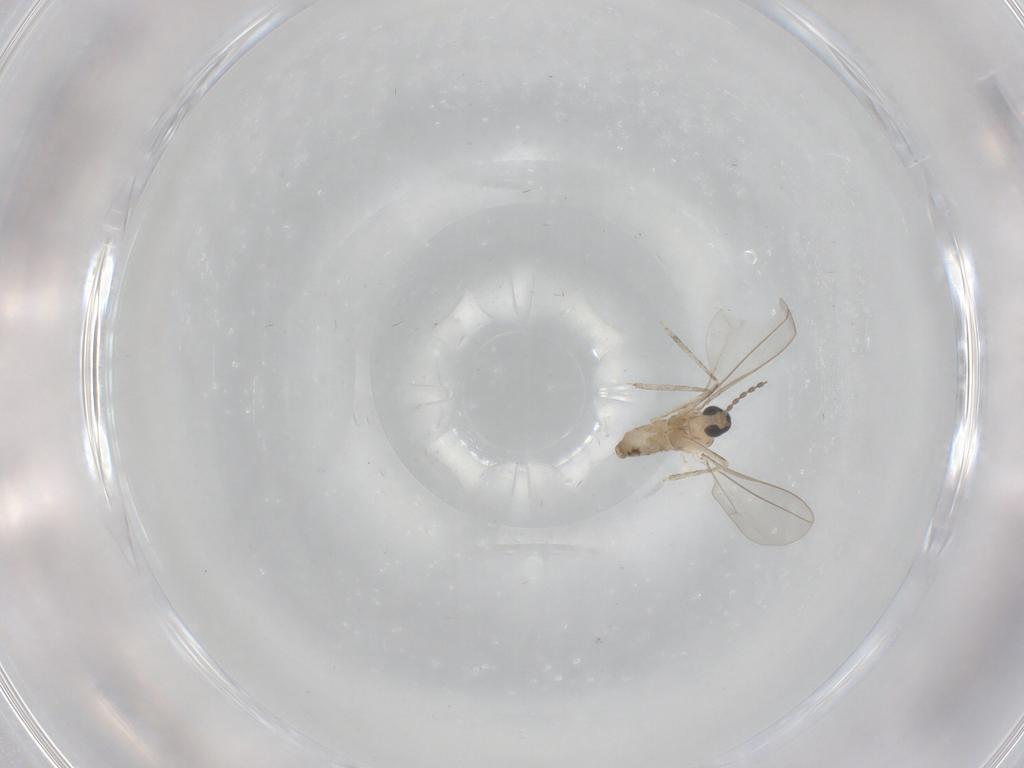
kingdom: Animalia
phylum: Arthropoda
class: Insecta
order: Diptera
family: Cecidomyiidae
